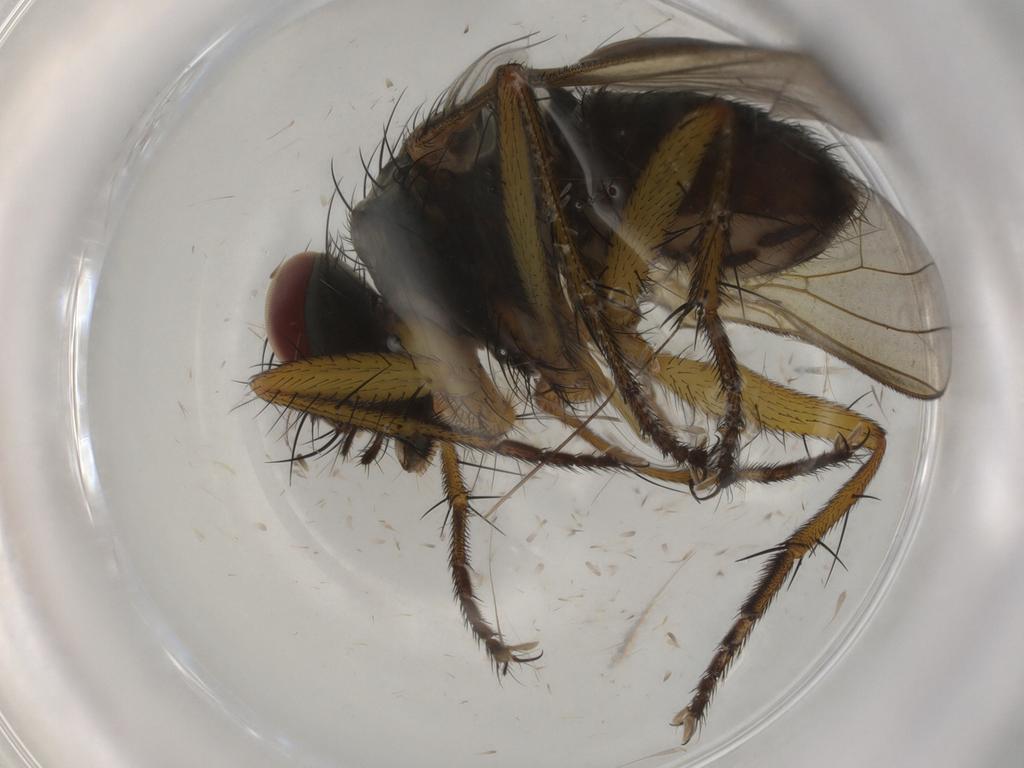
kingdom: Animalia
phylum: Arthropoda
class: Insecta
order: Diptera
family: Muscidae
